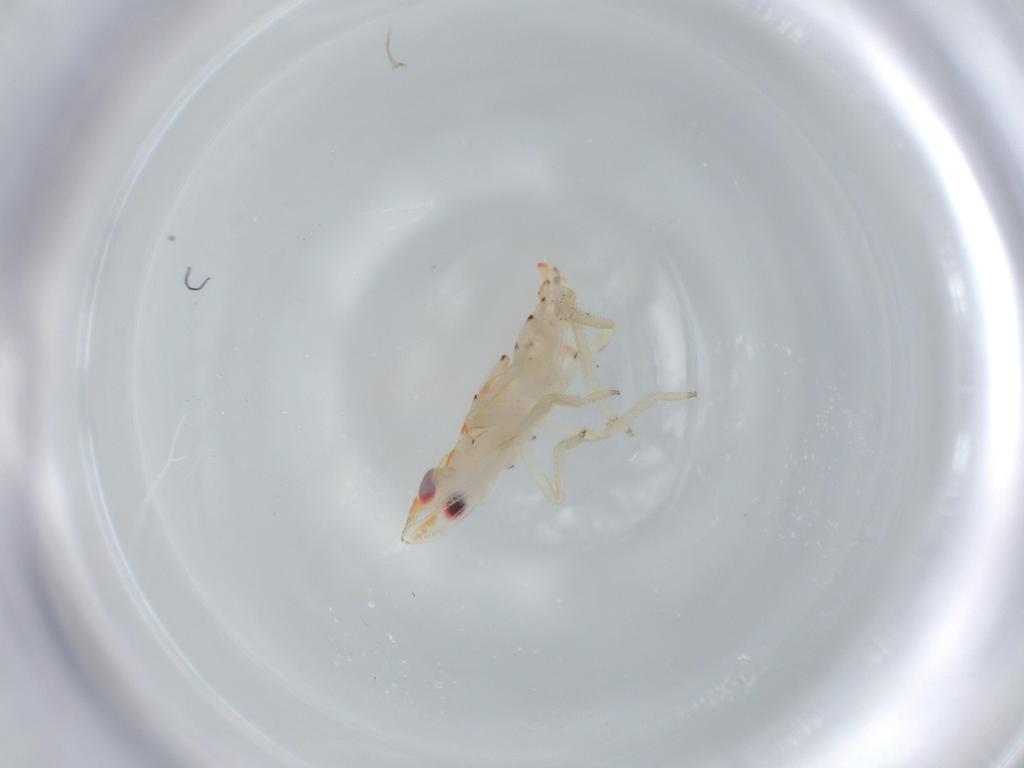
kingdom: Animalia
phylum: Arthropoda
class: Insecta
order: Hemiptera
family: Tropiduchidae
